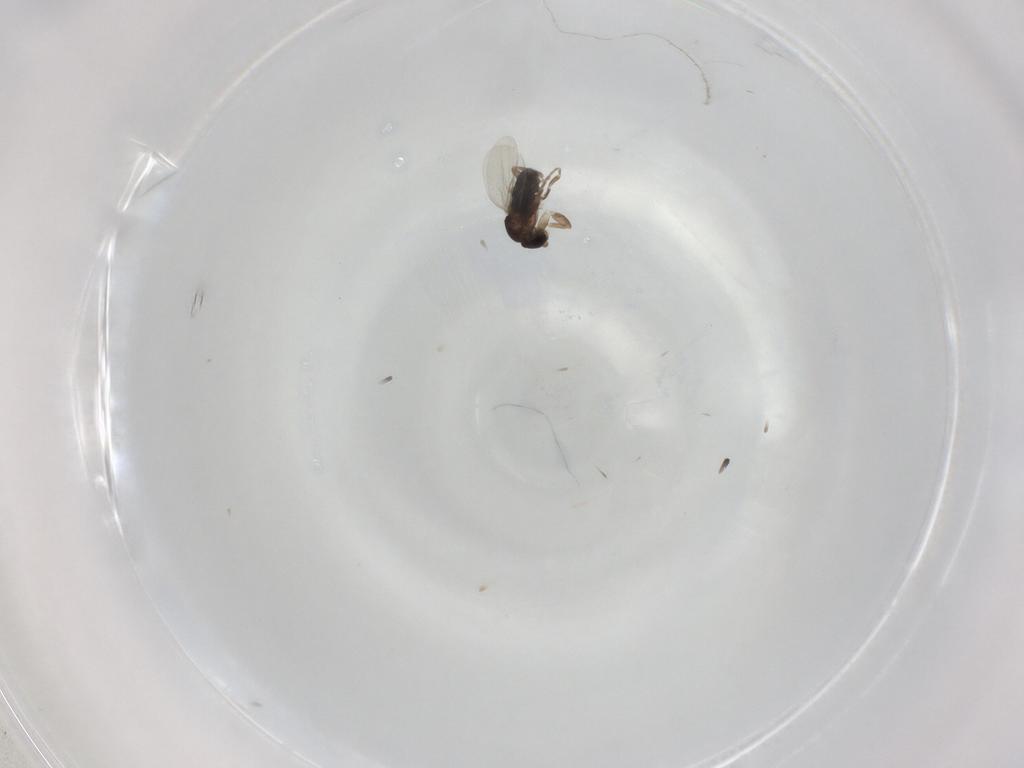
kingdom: Animalia
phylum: Arthropoda
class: Insecta
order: Diptera
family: Phoridae
